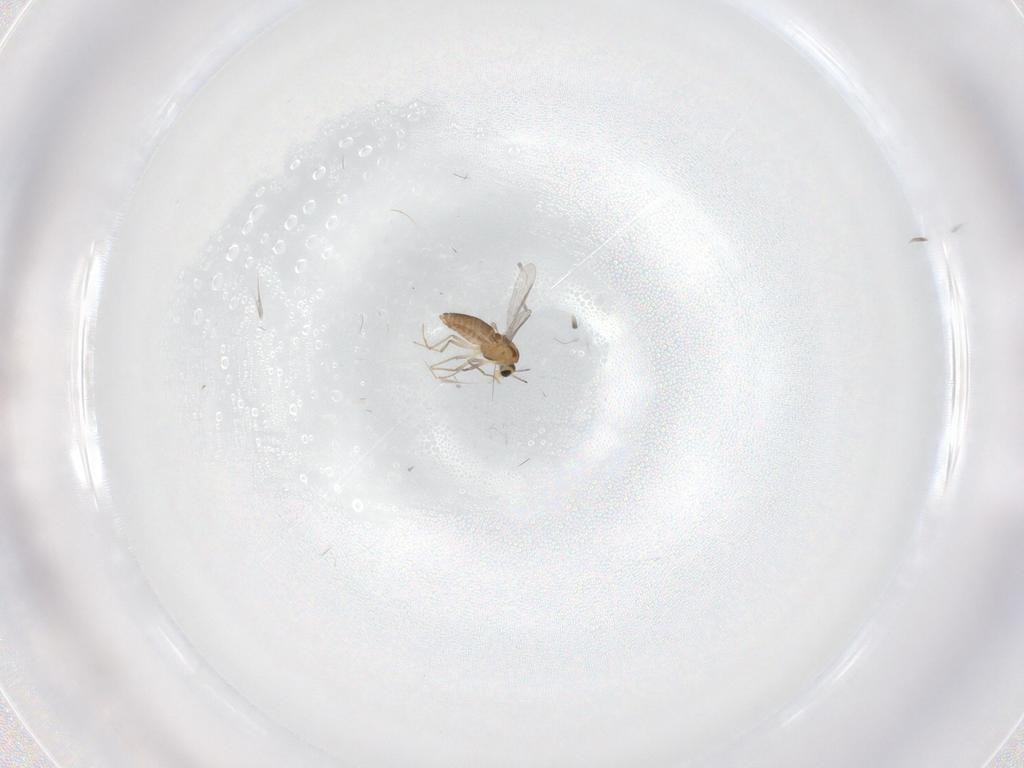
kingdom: Animalia
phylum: Arthropoda
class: Insecta
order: Diptera
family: Chironomidae
